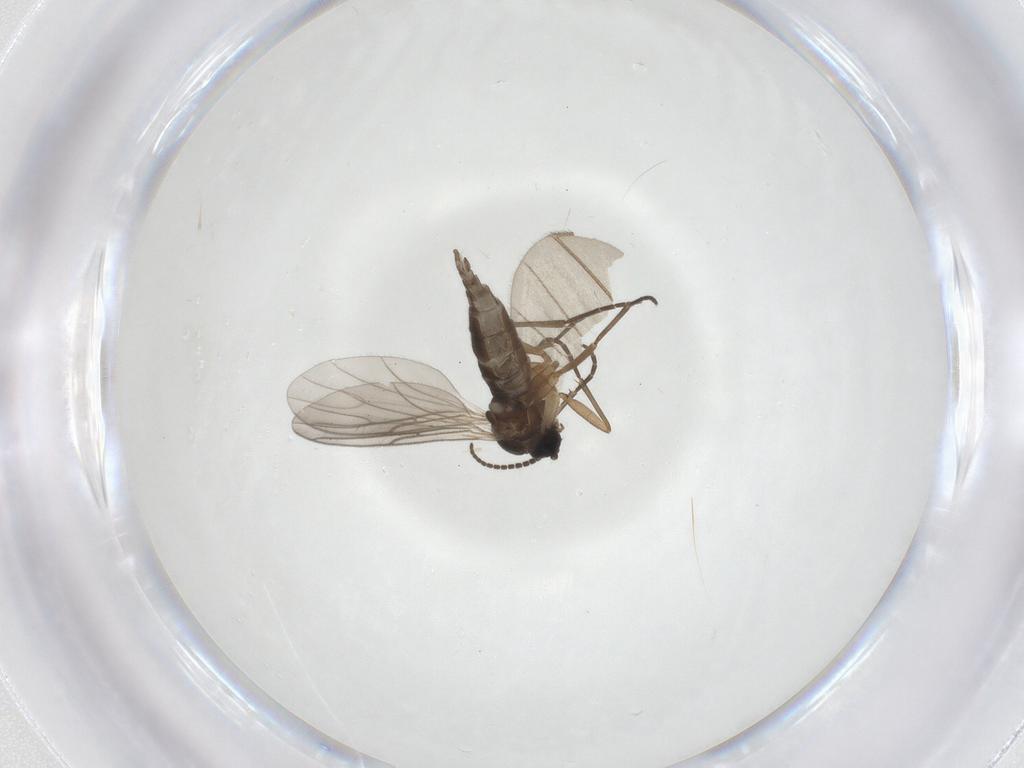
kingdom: Animalia
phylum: Arthropoda
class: Insecta
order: Diptera
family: Sciaridae
